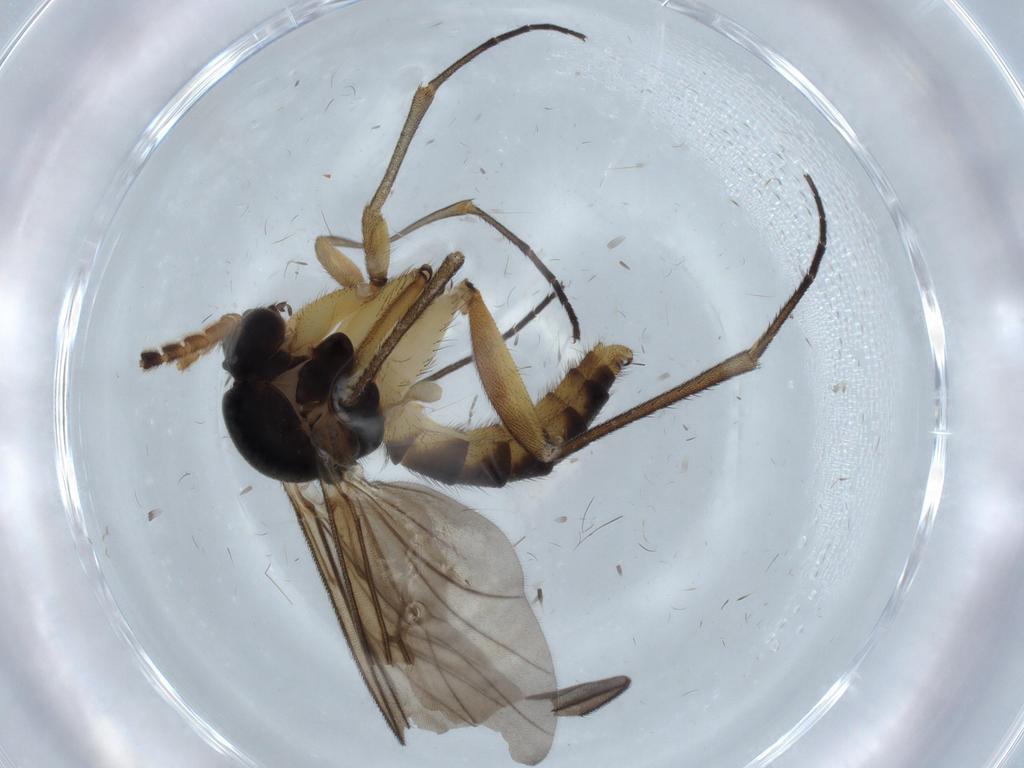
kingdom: Animalia
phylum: Arthropoda
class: Insecta
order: Diptera
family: Chironomidae
